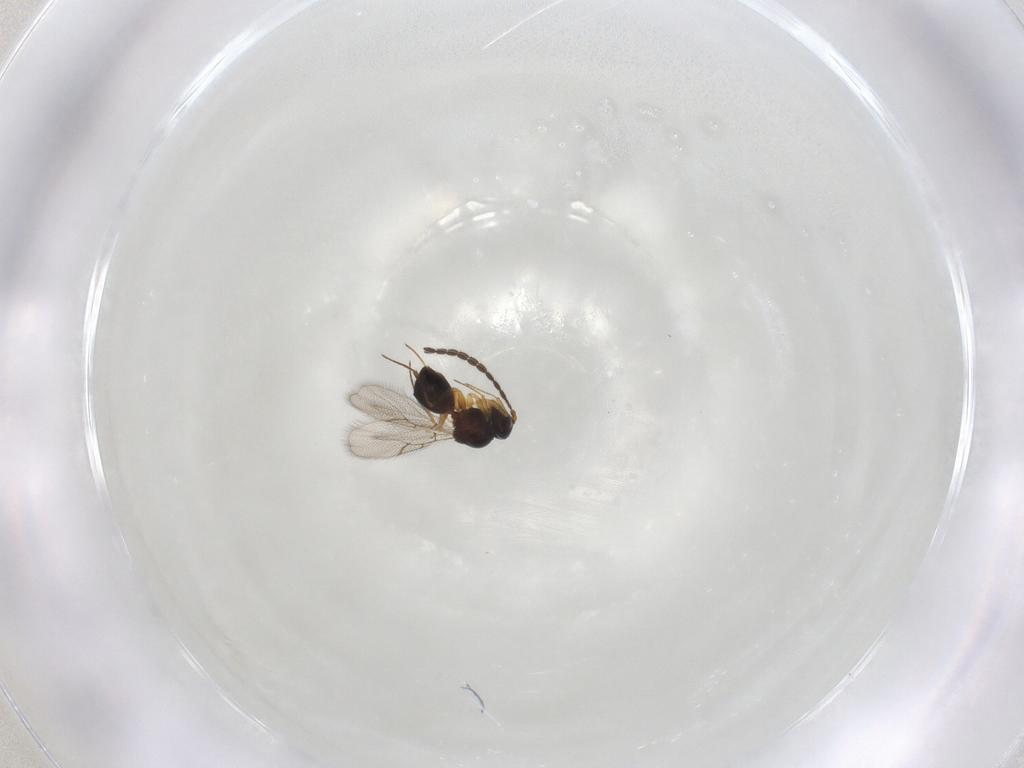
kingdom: Animalia
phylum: Arthropoda
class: Insecta
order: Hymenoptera
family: Figitidae
